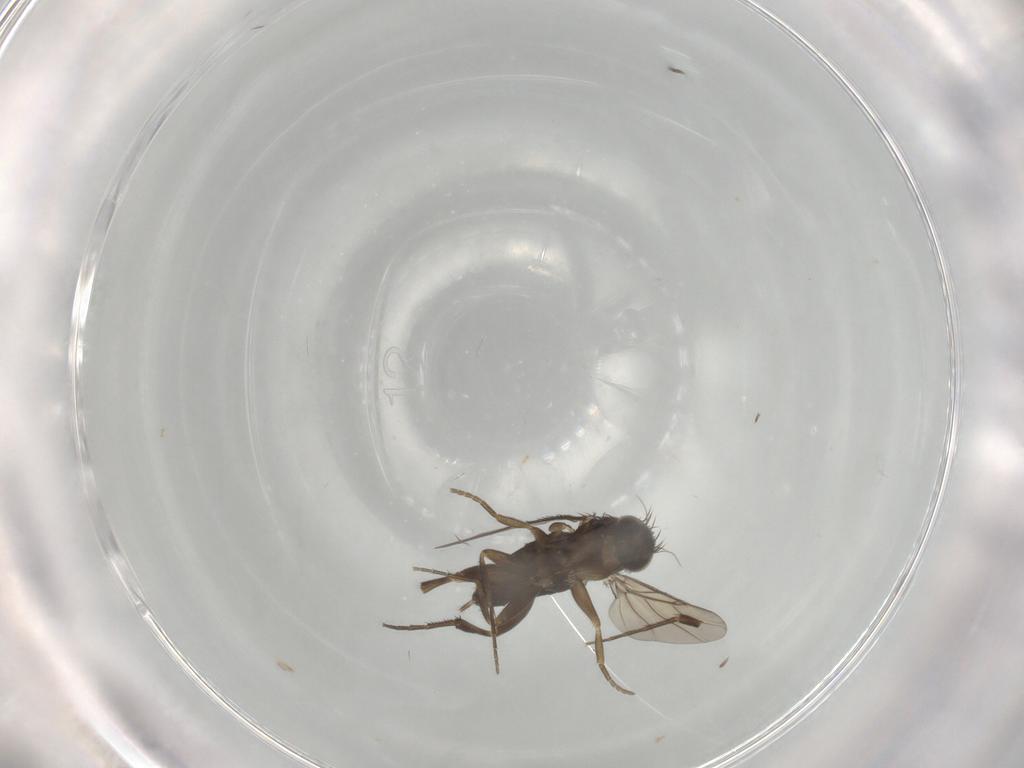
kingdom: Animalia
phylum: Arthropoda
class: Insecta
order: Diptera
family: Phoridae
